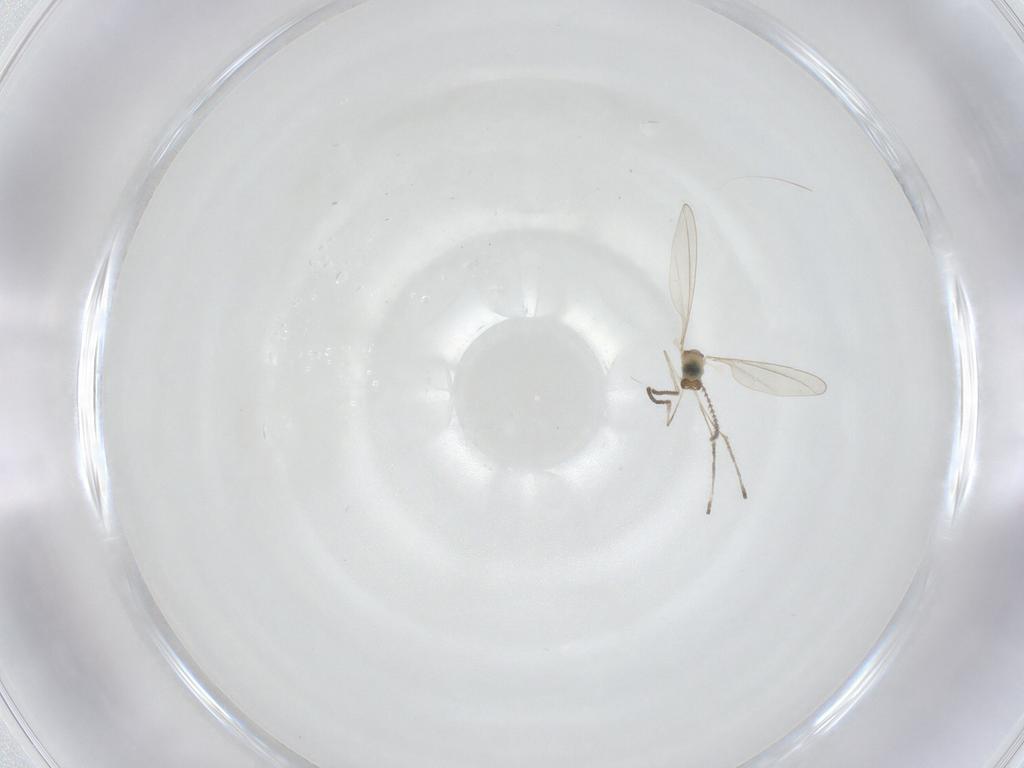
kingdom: Animalia
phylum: Arthropoda
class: Insecta
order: Diptera
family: Cecidomyiidae
